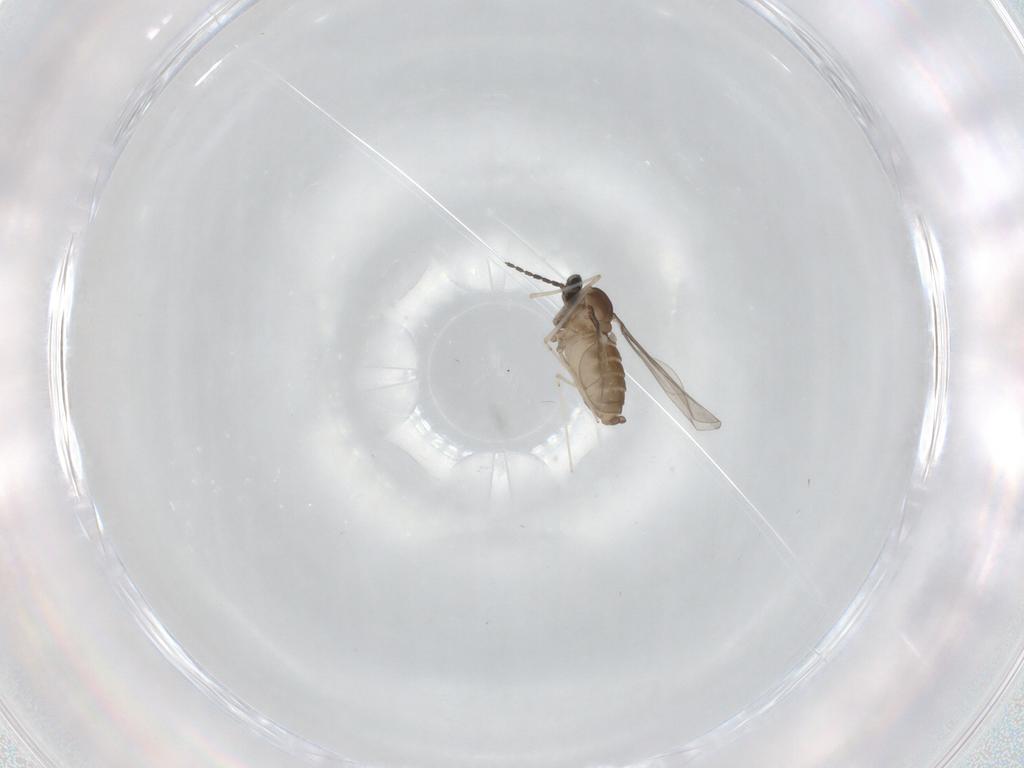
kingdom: Animalia
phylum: Arthropoda
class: Insecta
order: Diptera
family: Cecidomyiidae
